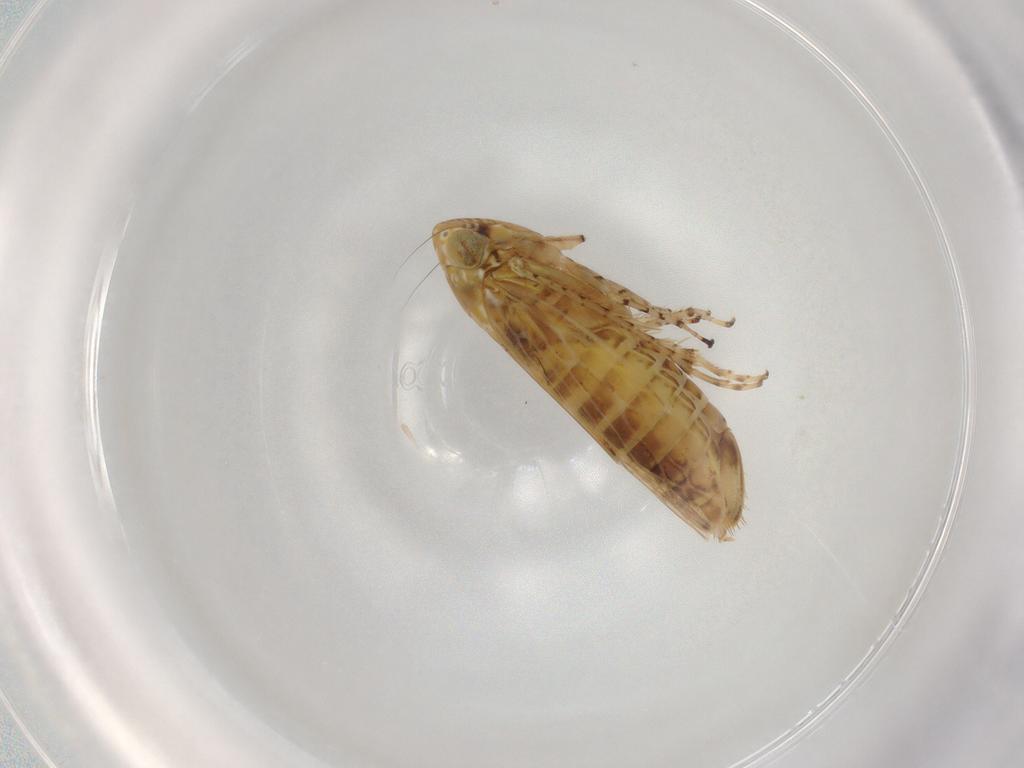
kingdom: Animalia
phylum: Arthropoda
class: Insecta
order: Hemiptera
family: Cicadellidae
